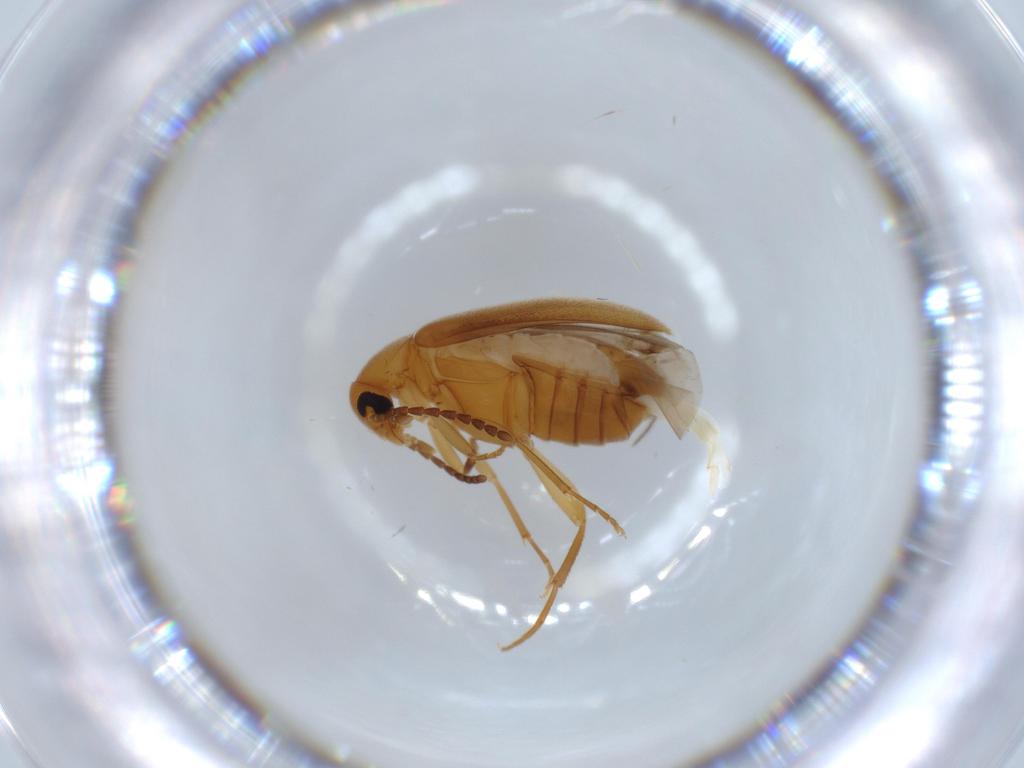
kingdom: Animalia
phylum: Arthropoda
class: Insecta
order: Coleoptera
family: Scraptiidae
